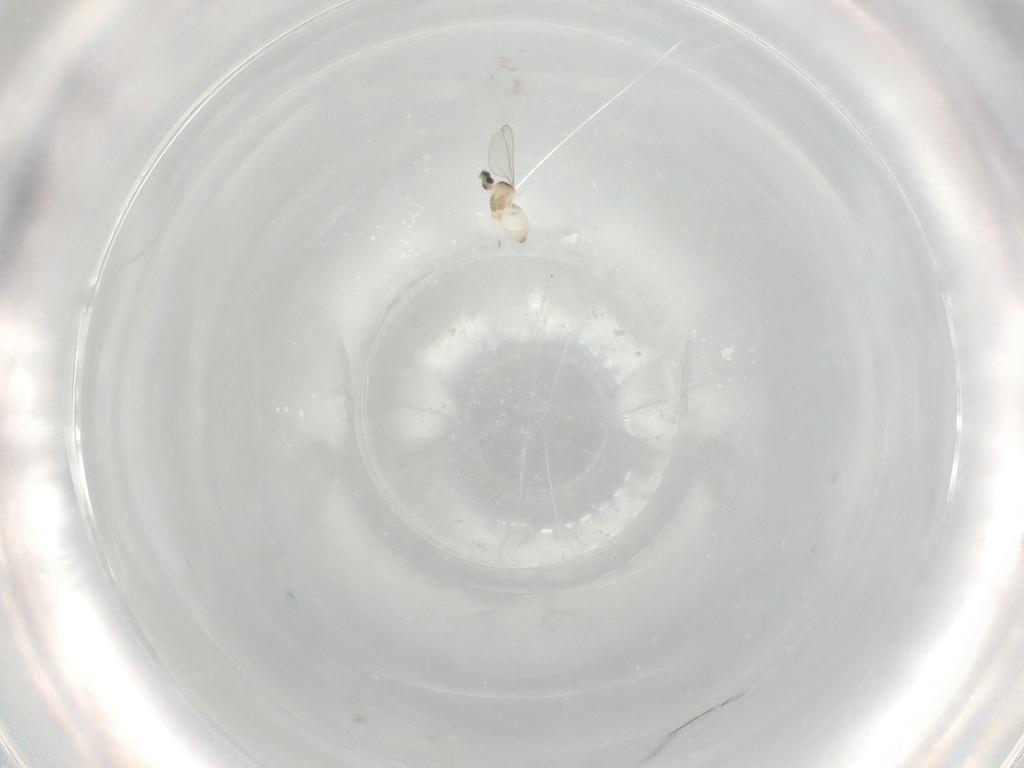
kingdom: Animalia
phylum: Arthropoda
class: Insecta
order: Diptera
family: Cecidomyiidae
